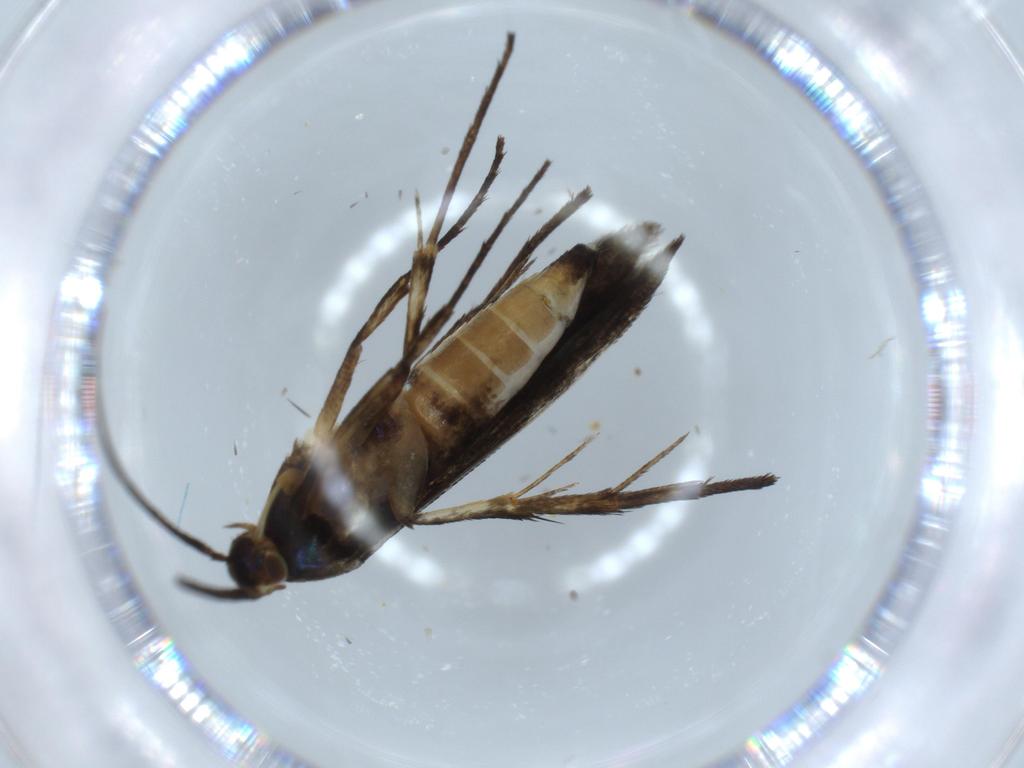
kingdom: Animalia
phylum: Arthropoda
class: Insecta
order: Lepidoptera
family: Heliodinidae
